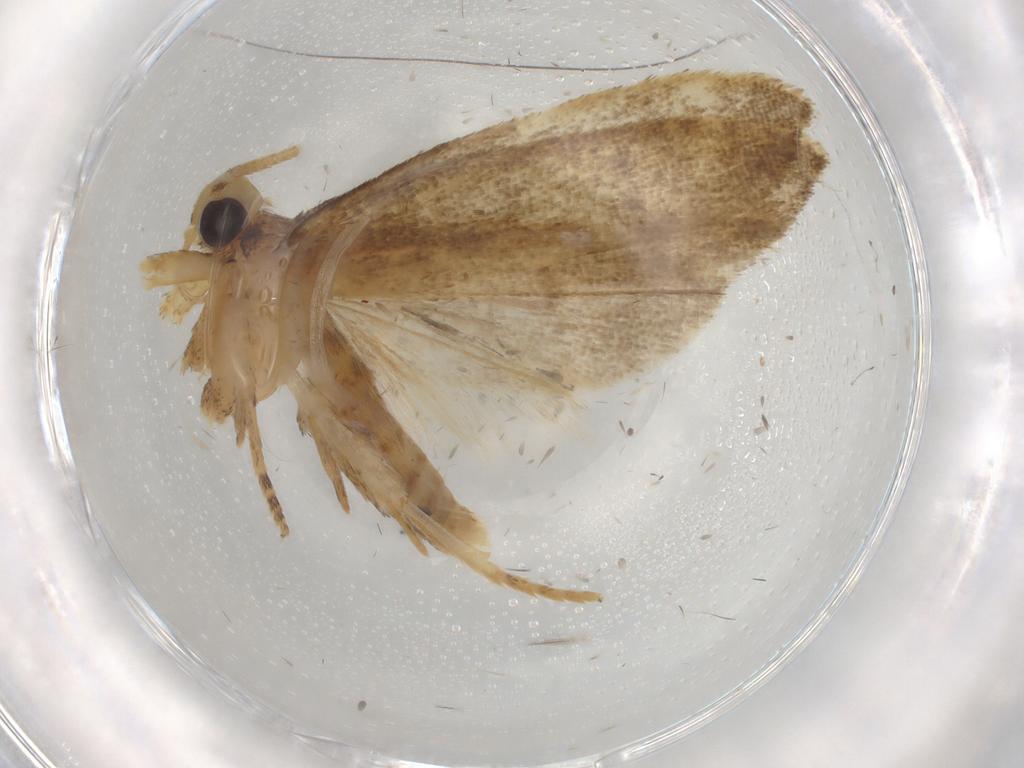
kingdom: Animalia
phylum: Arthropoda
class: Insecta
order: Lepidoptera
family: Autostichidae
